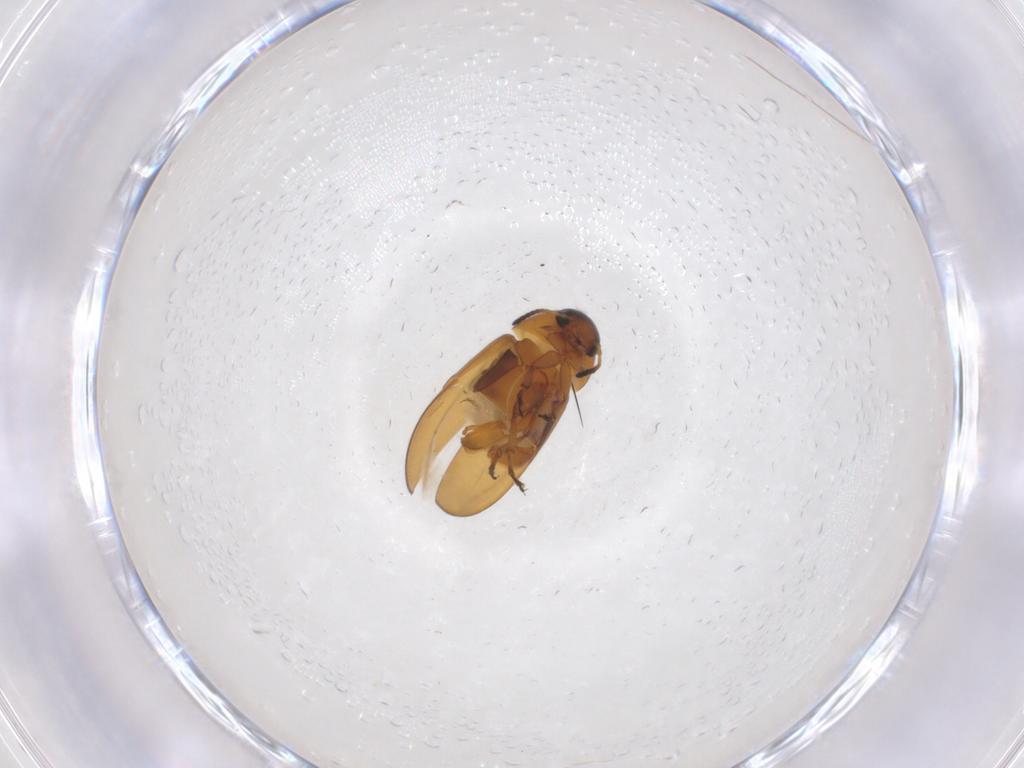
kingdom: Animalia
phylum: Arthropoda
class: Insecta
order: Coleoptera
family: Scraptiidae
